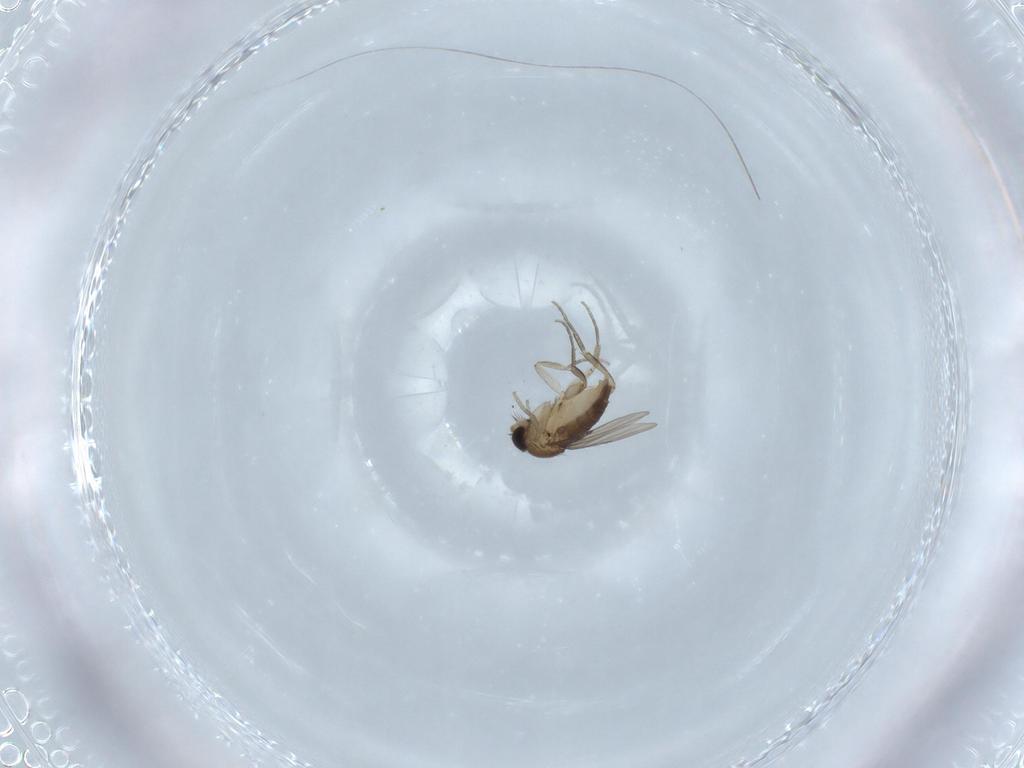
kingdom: Animalia
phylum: Arthropoda
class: Insecta
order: Diptera
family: Phoridae
